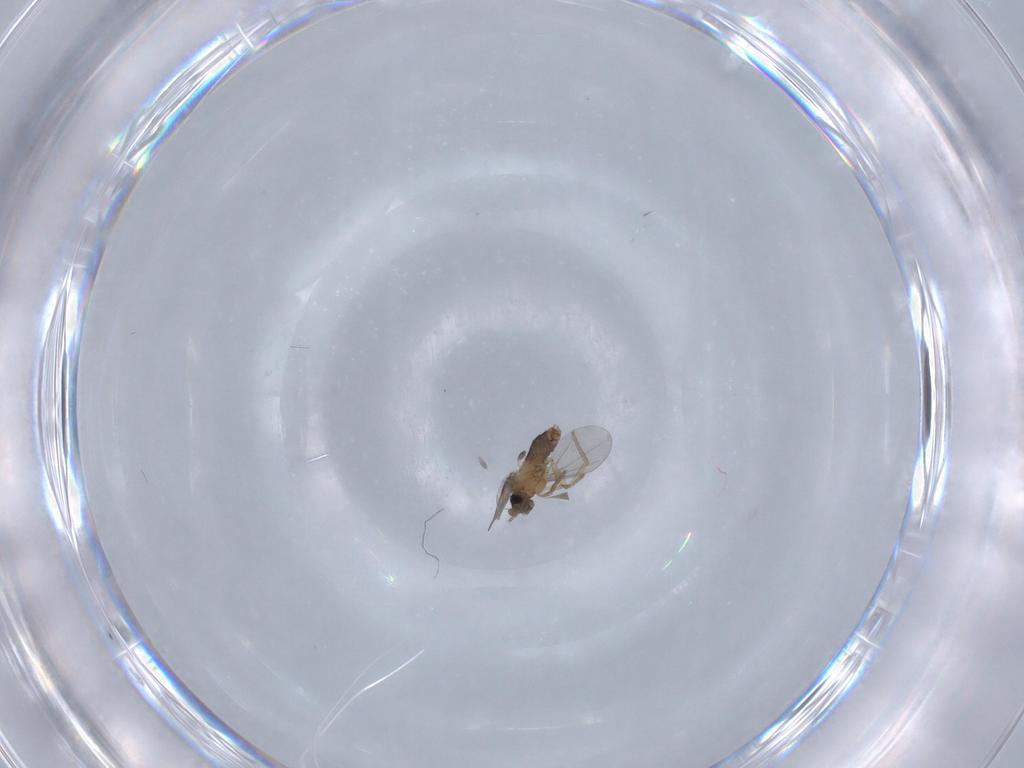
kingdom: Animalia
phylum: Arthropoda
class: Insecta
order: Diptera
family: Phoridae
